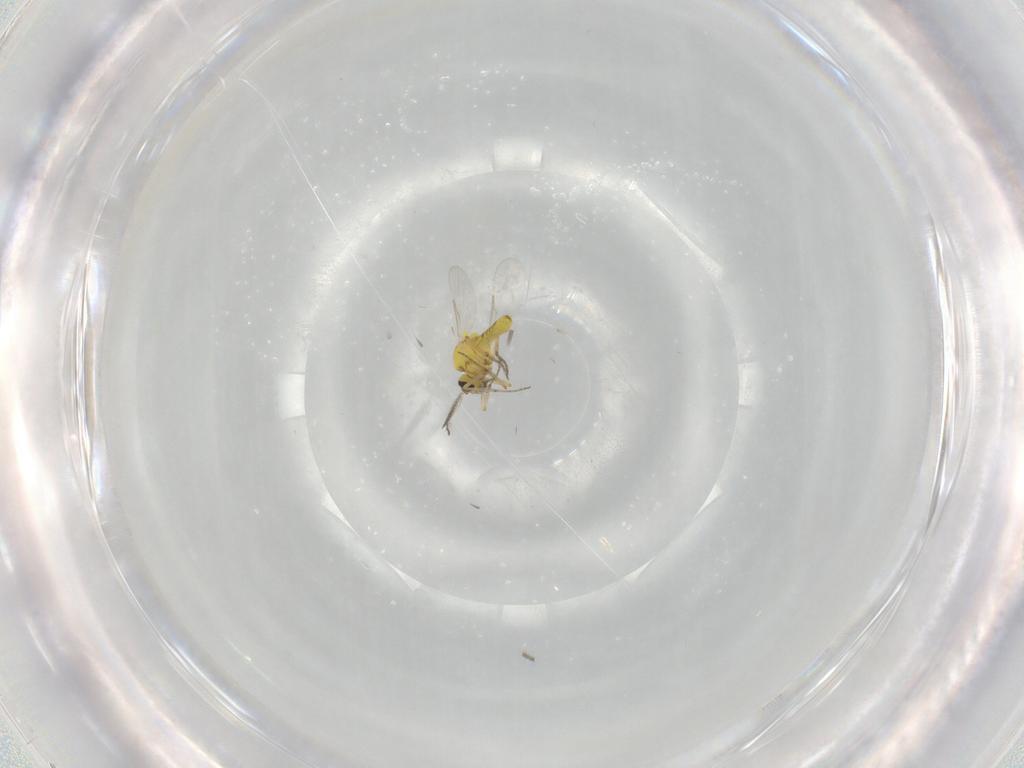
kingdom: Animalia
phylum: Arthropoda
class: Insecta
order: Diptera
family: Ceratopogonidae
